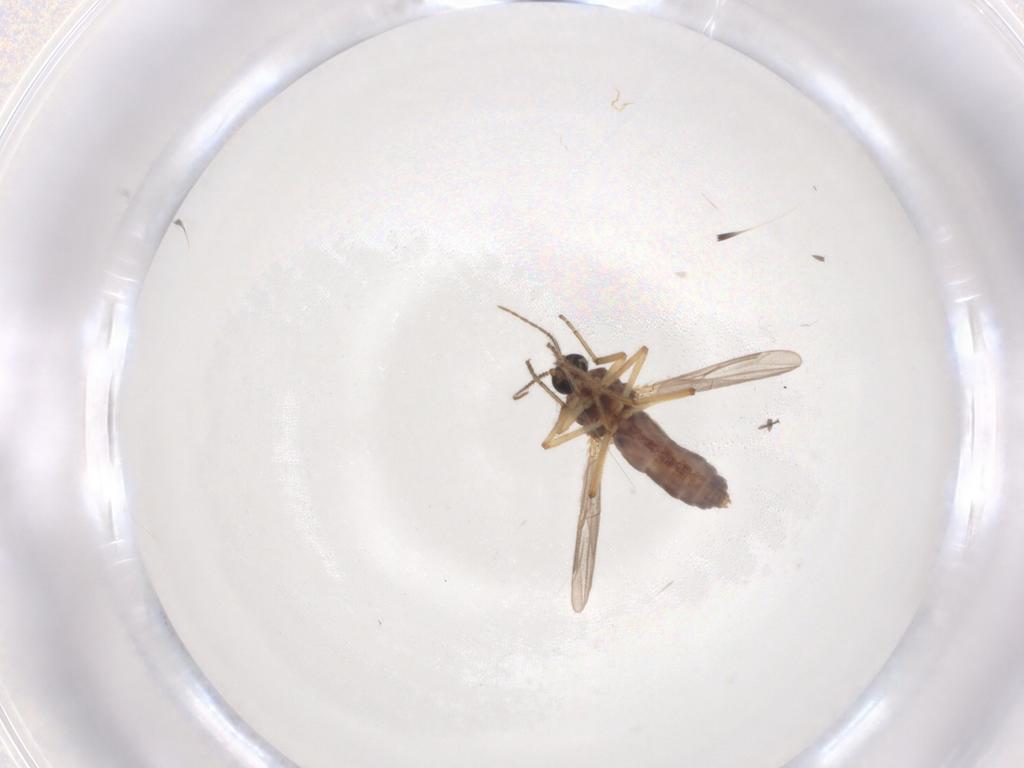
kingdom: Animalia
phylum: Arthropoda
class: Insecta
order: Diptera
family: Ceratopogonidae
